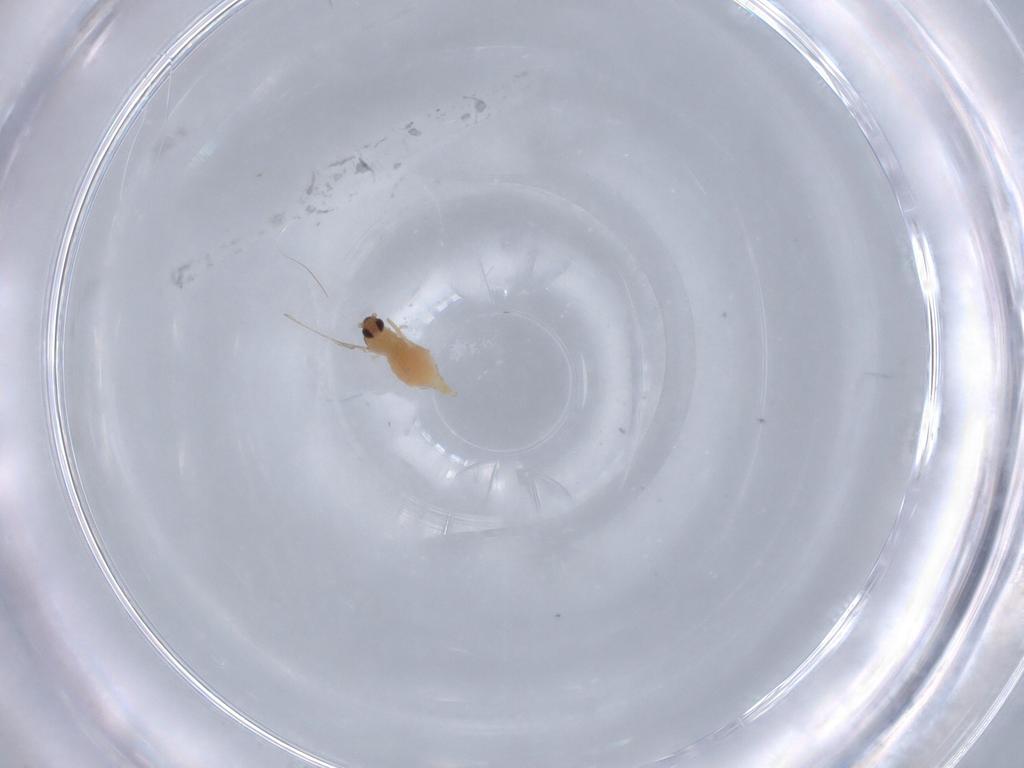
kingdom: Animalia
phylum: Arthropoda
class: Insecta
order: Diptera
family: Cecidomyiidae
